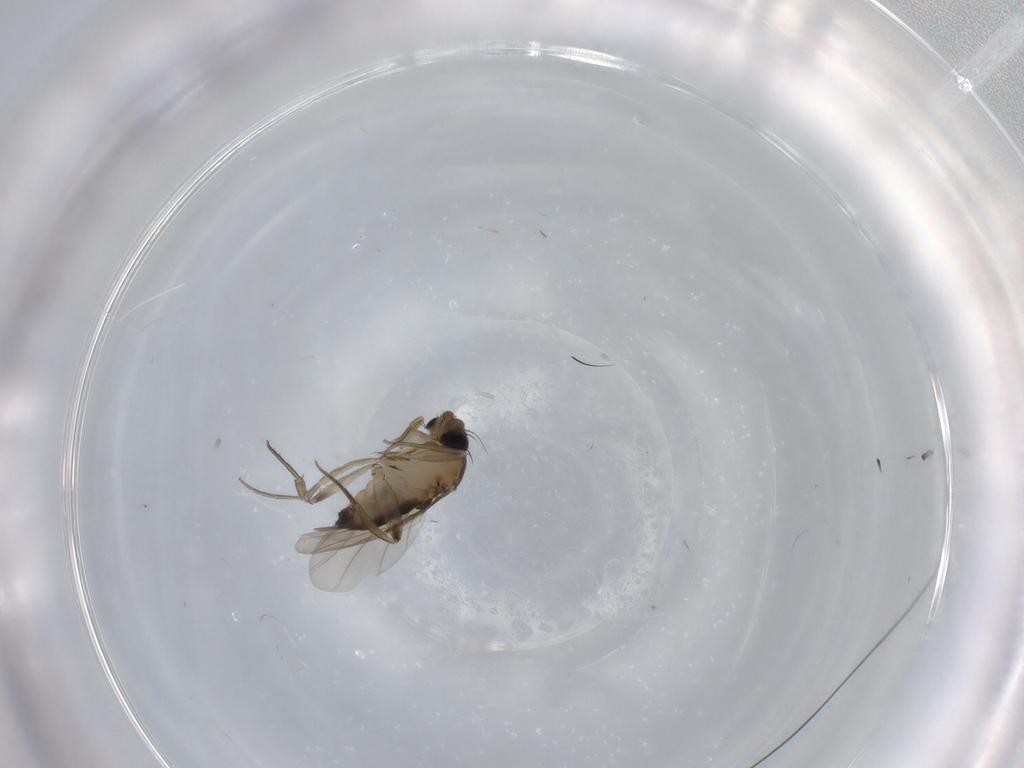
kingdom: Animalia
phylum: Arthropoda
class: Insecta
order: Diptera
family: Phoridae
